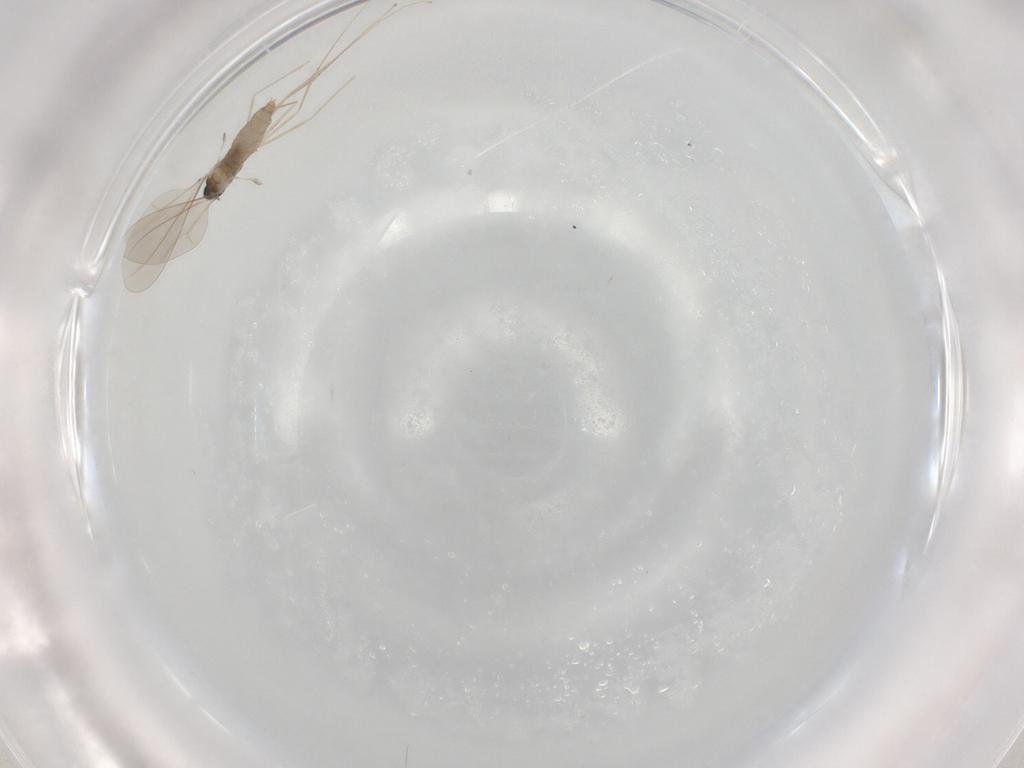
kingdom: Animalia
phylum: Arthropoda
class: Insecta
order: Diptera
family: Cecidomyiidae
